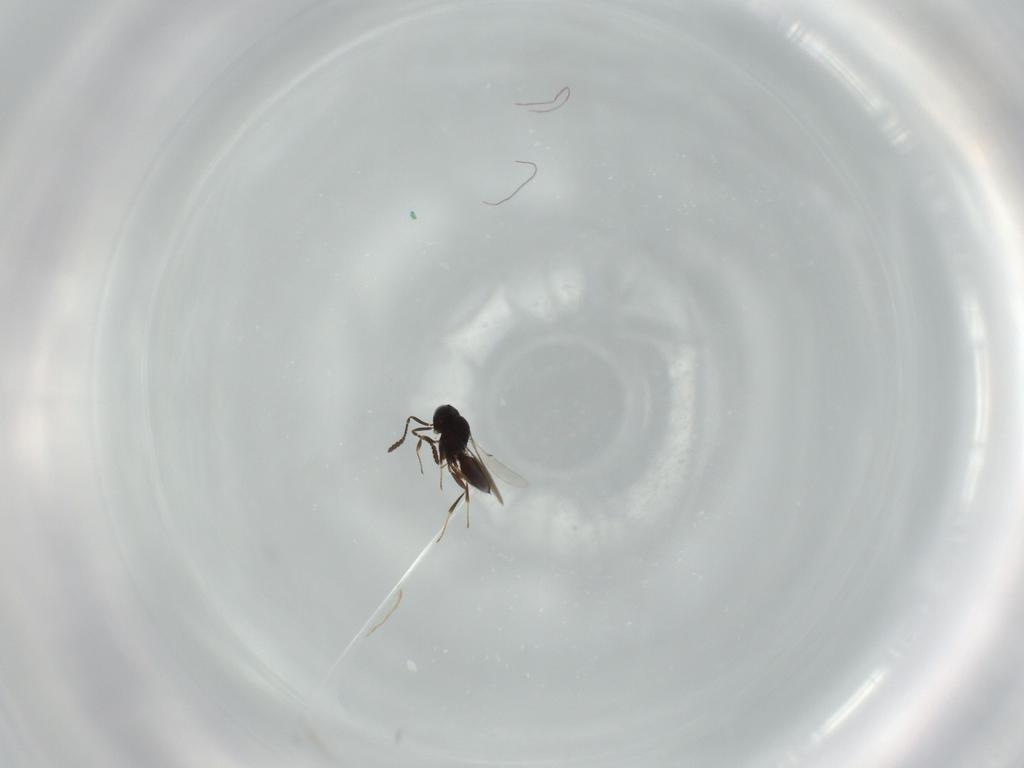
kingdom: Animalia
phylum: Arthropoda
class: Insecta
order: Hymenoptera
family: Scelionidae
